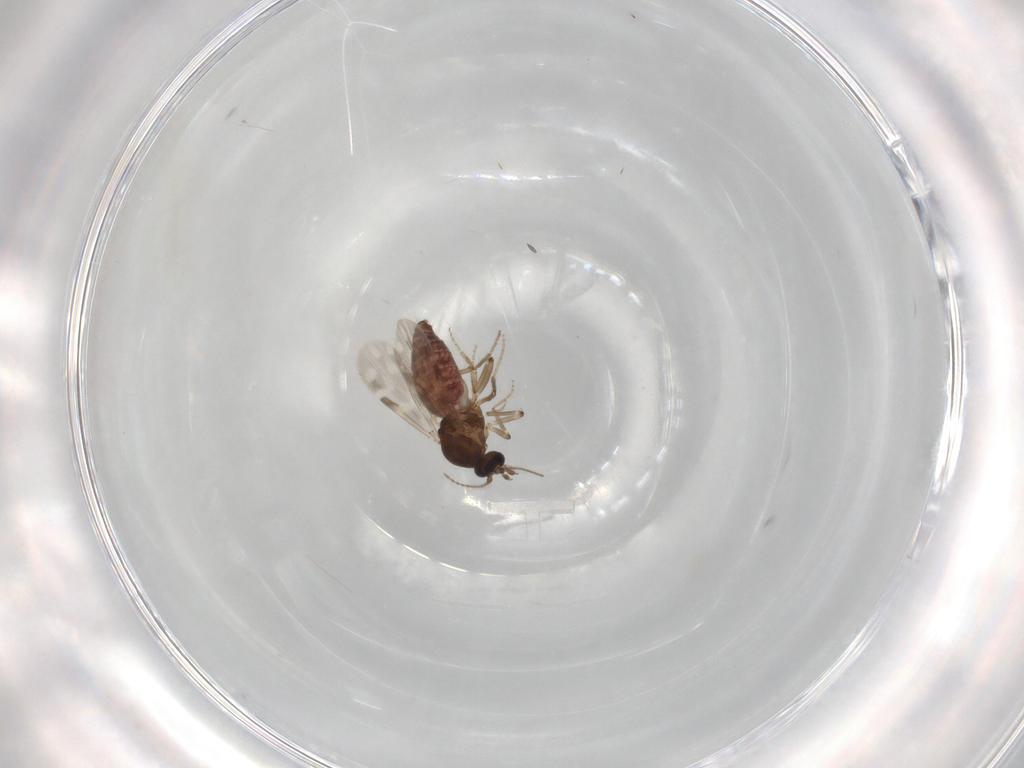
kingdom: Animalia
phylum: Arthropoda
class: Insecta
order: Diptera
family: Ceratopogonidae
